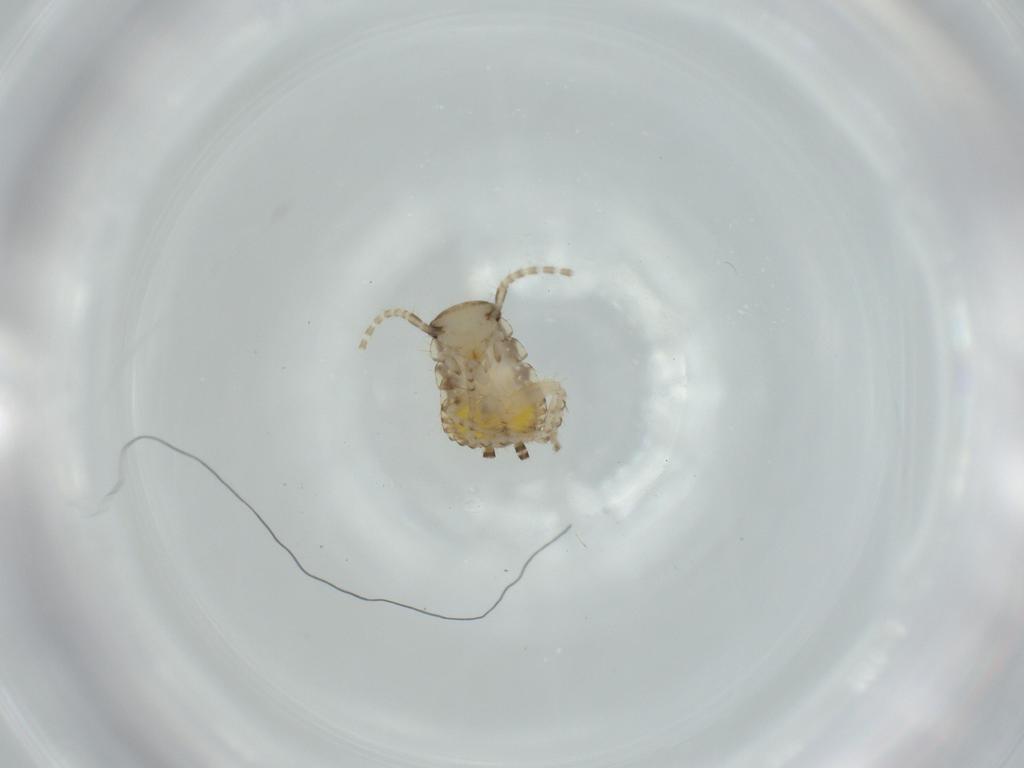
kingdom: Animalia
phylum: Arthropoda
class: Insecta
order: Blattodea
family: Ectobiidae
